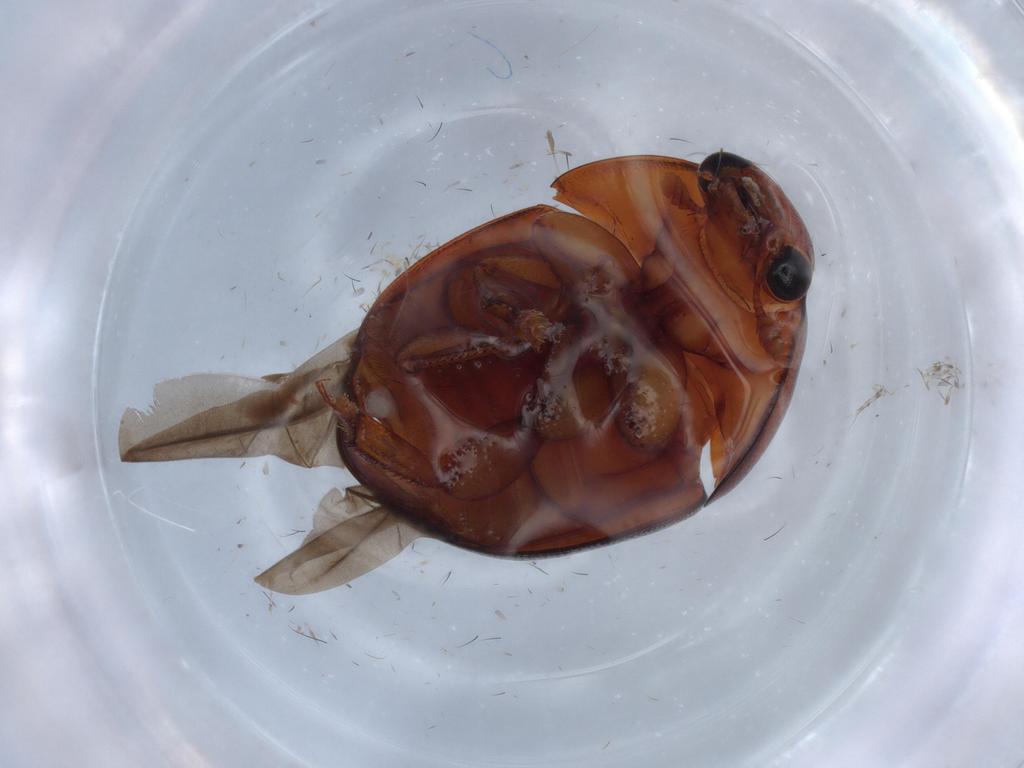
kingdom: Animalia
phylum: Arthropoda
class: Insecta
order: Coleoptera
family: Nitidulidae
